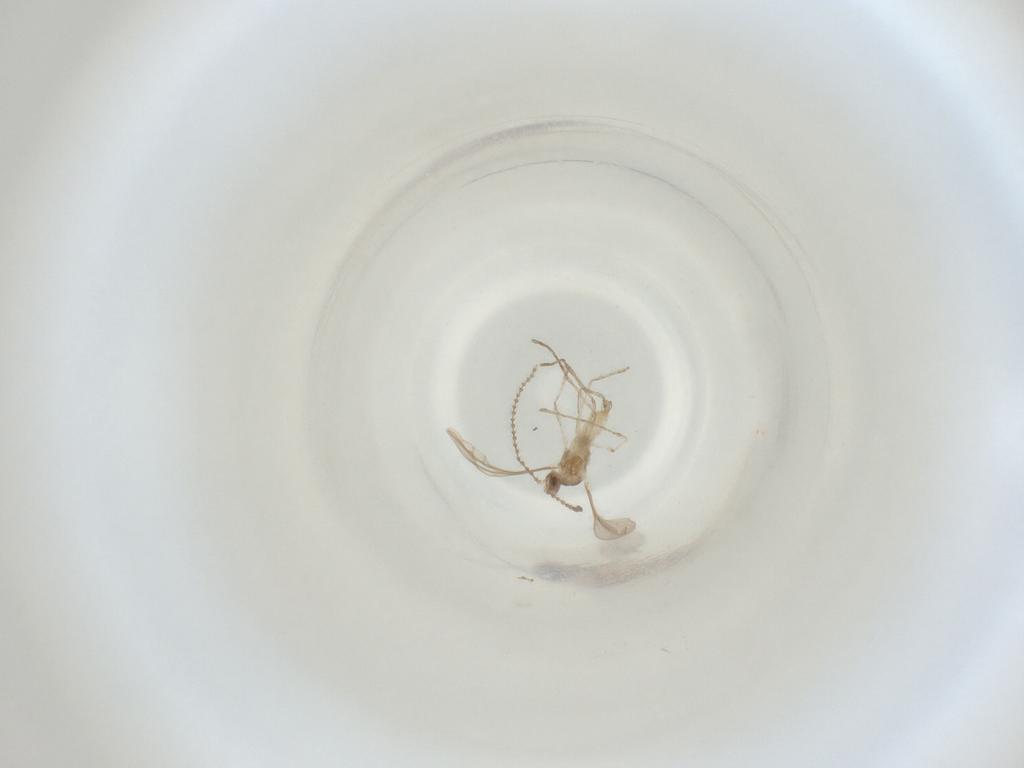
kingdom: Animalia
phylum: Arthropoda
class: Insecta
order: Diptera
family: Cecidomyiidae
